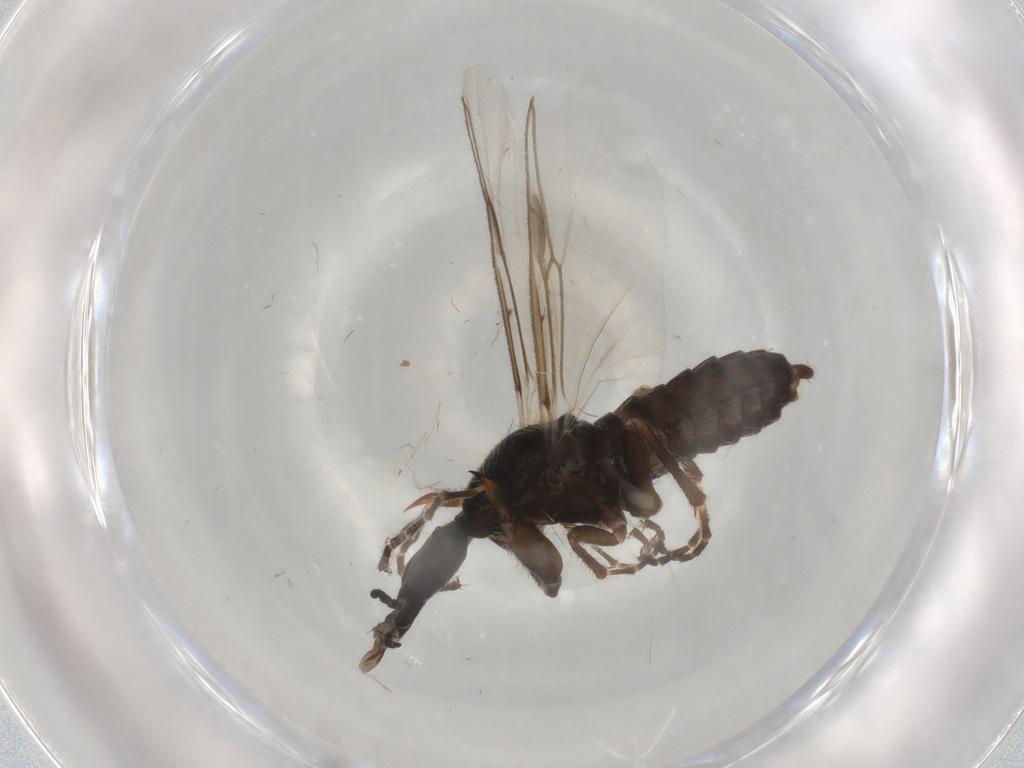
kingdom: Animalia
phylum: Arthropoda
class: Insecta
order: Diptera
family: Bibionidae
